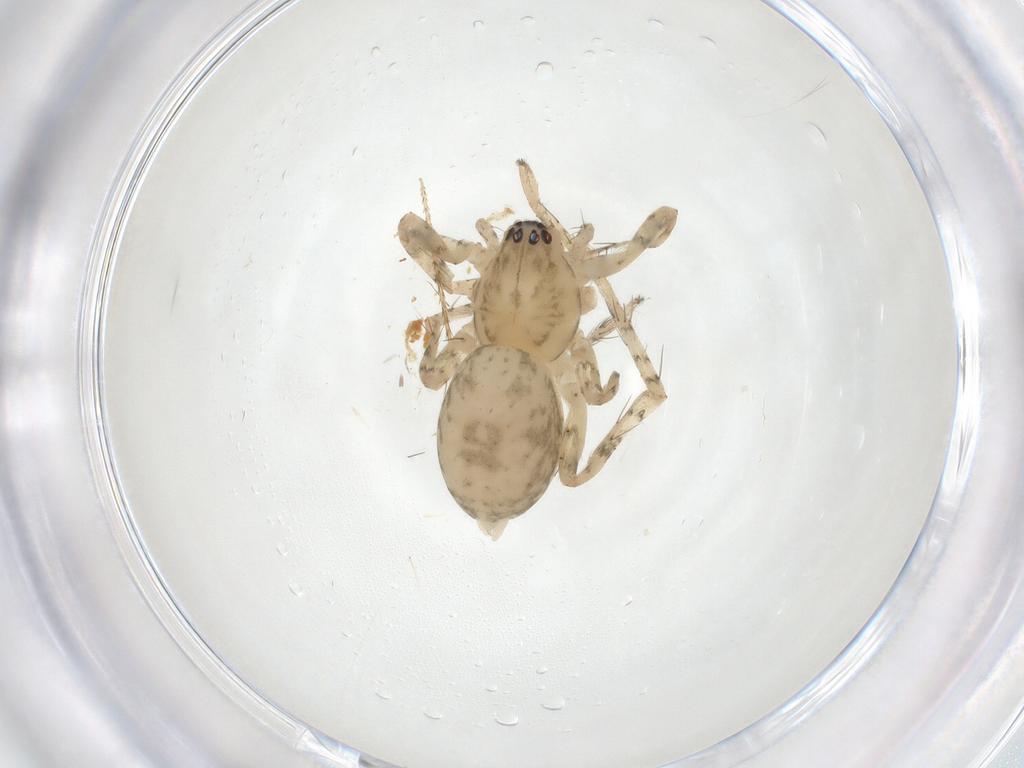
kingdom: Animalia
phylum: Arthropoda
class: Arachnida
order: Araneae
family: Anyphaenidae
